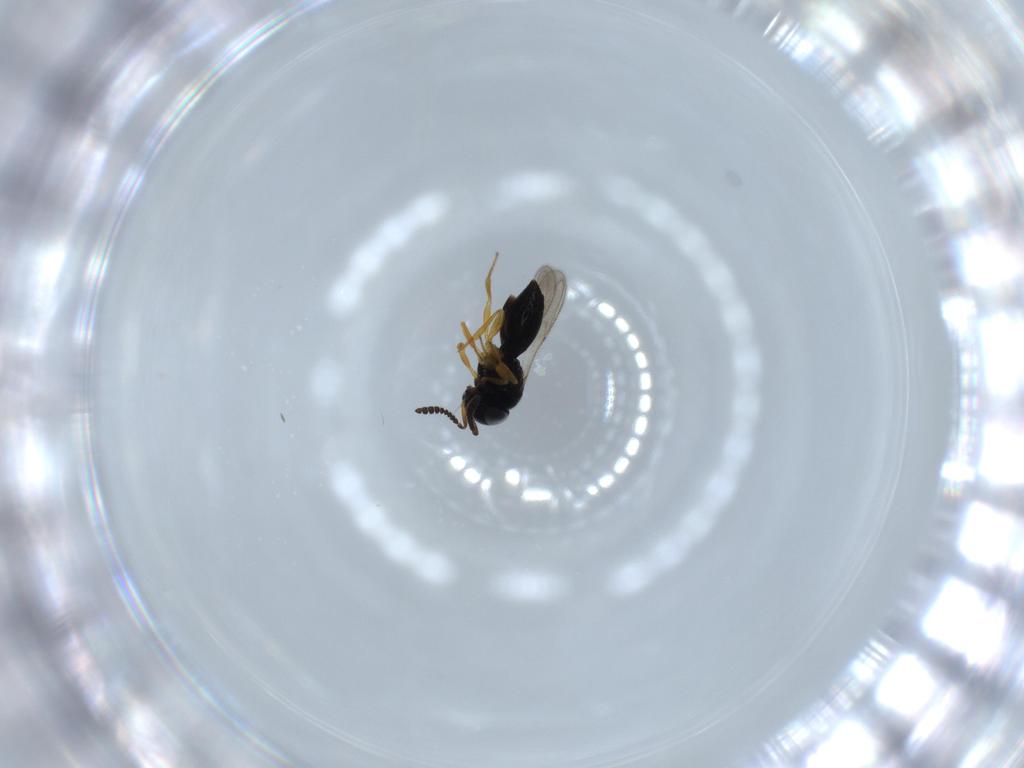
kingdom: Animalia
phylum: Arthropoda
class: Insecta
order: Hymenoptera
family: Scelionidae
